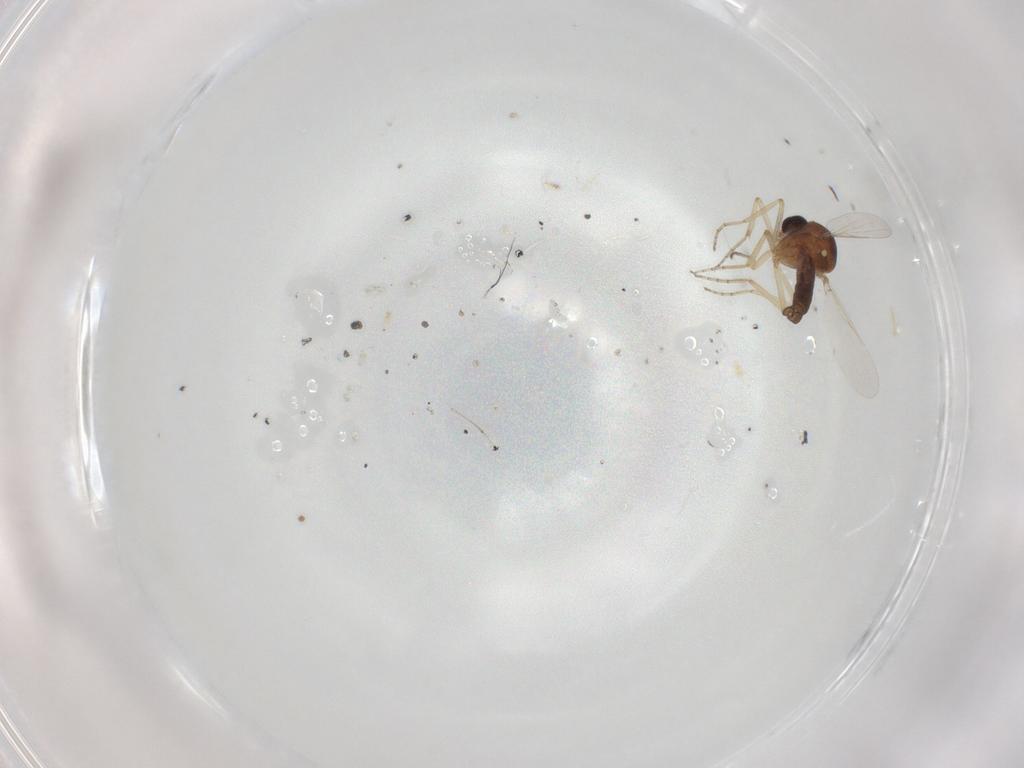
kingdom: Animalia
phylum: Arthropoda
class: Insecta
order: Diptera
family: Ceratopogonidae
